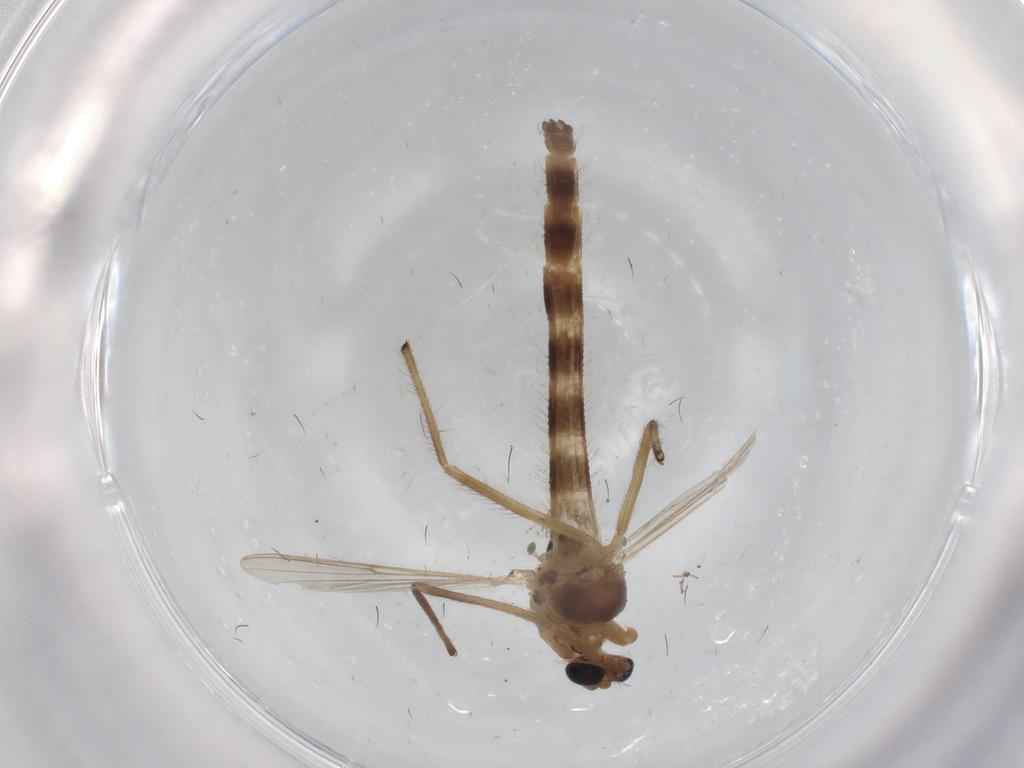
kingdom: Animalia
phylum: Arthropoda
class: Insecta
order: Diptera
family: Chironomidae
